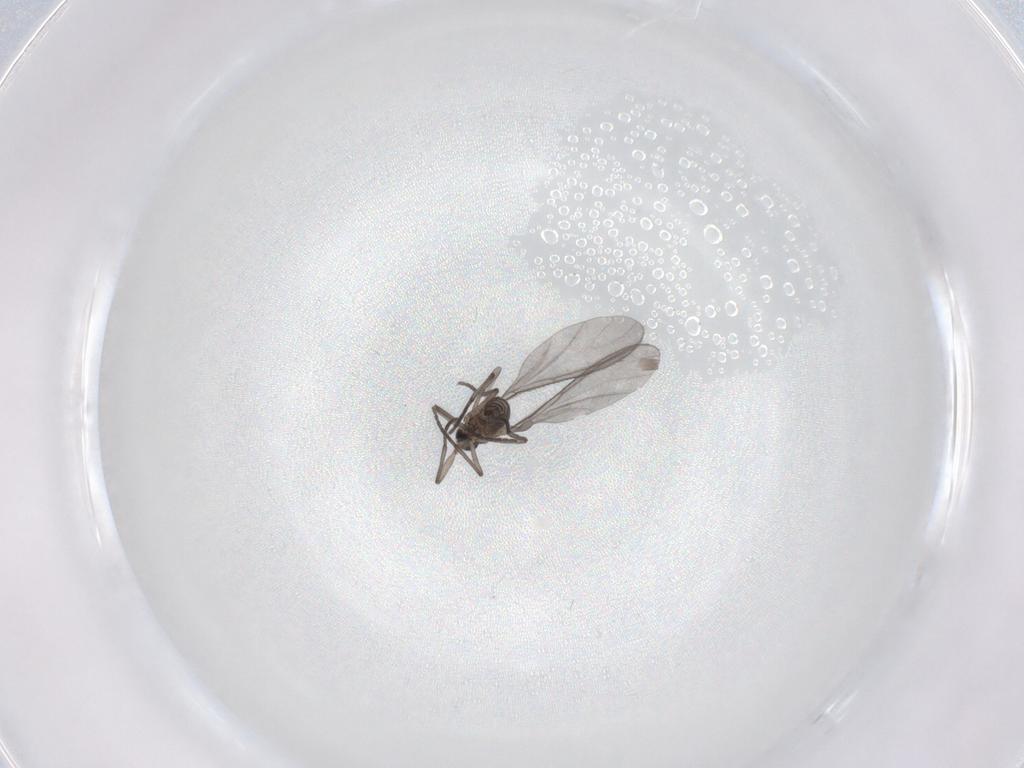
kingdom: Animalia
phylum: Arthropoda
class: Insecta
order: Diptera
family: Sciaridae
